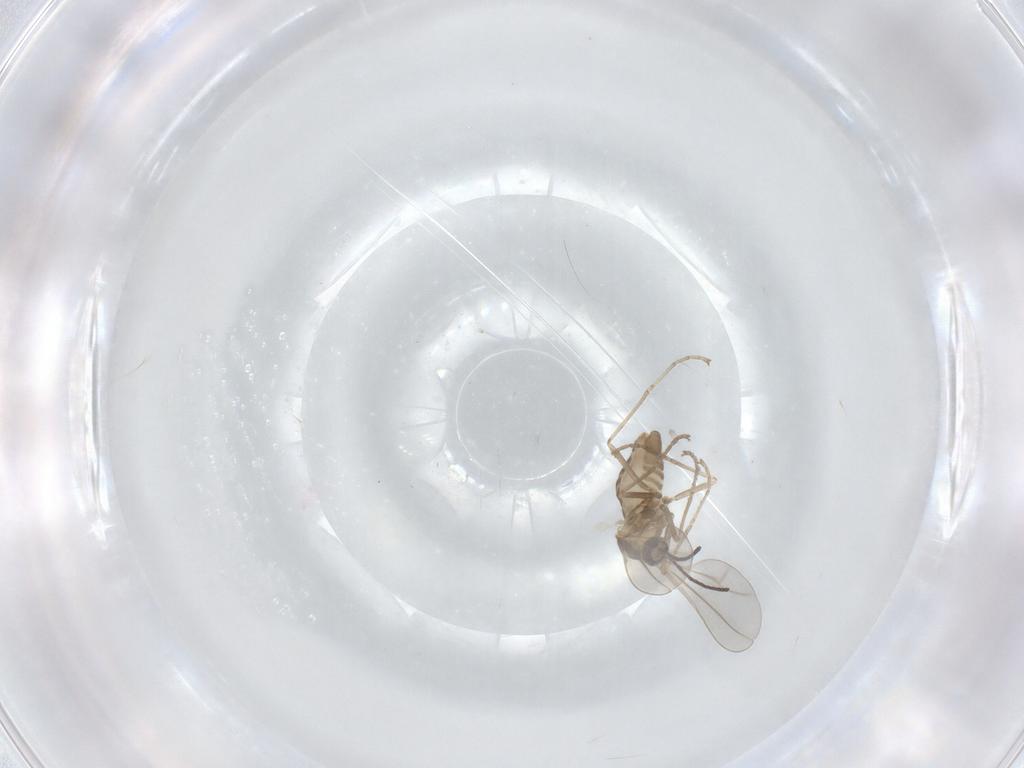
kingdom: Animalia
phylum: Arthropoda
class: Insecta
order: Diptera
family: Cecidomyiidae
